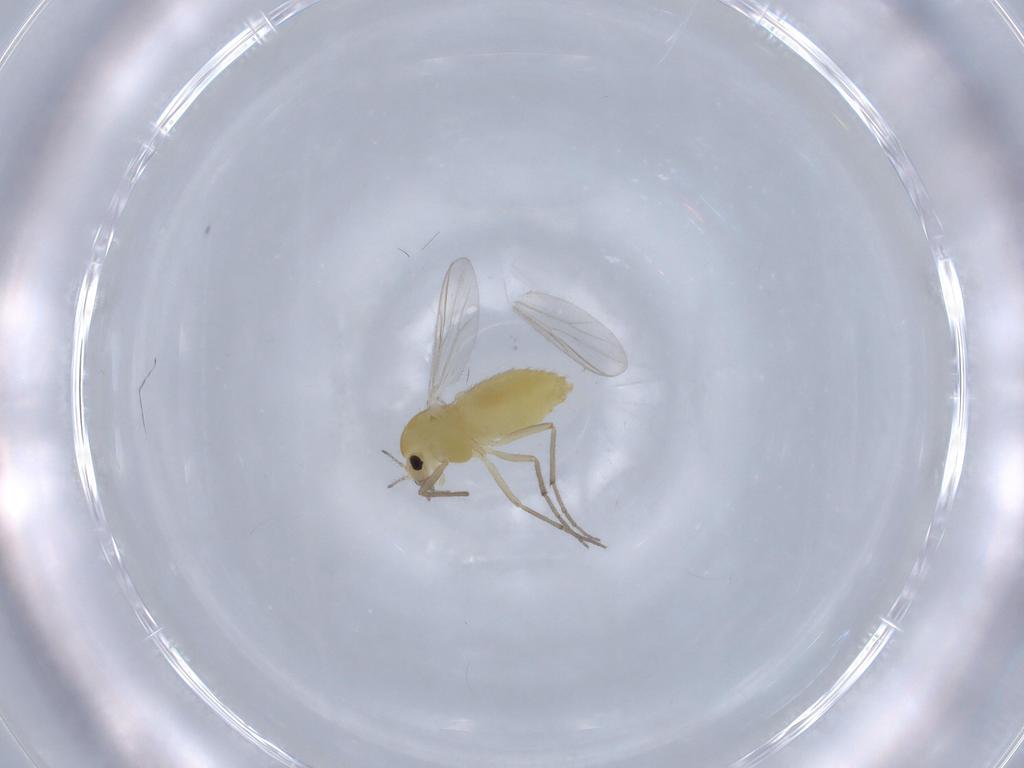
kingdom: Animalia
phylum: Arthropoda
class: Insecta
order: Diptera
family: Chironomidae
